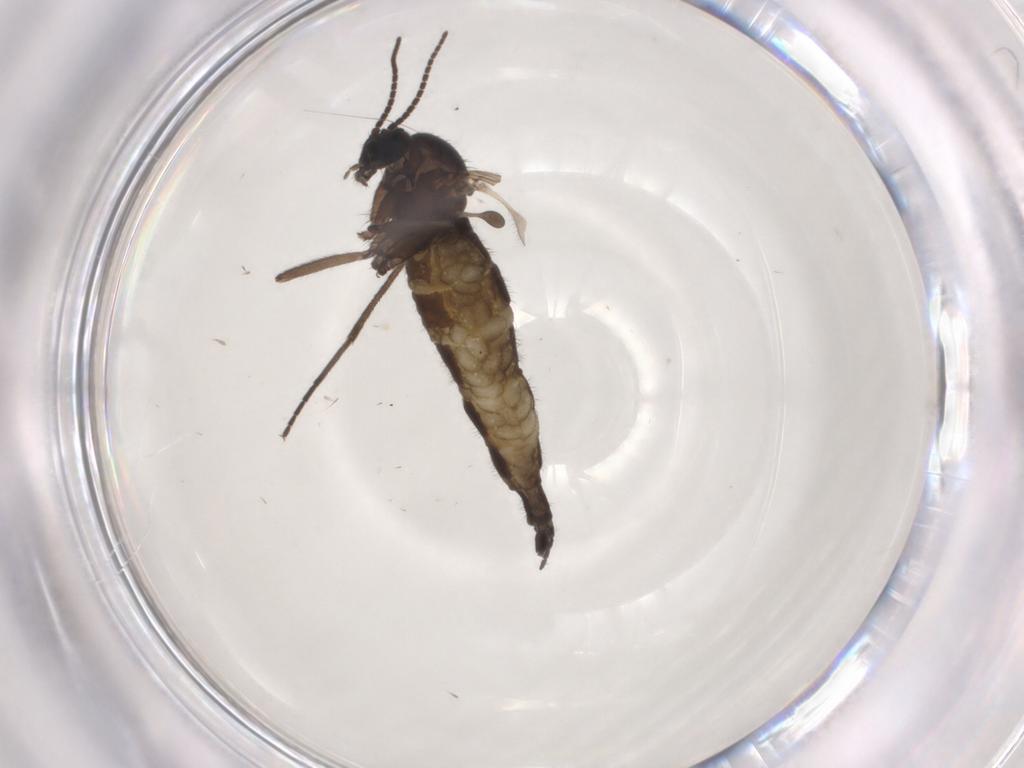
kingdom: Animalia
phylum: Arthropoda
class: Insecta
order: Diptera
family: Sciaridae
